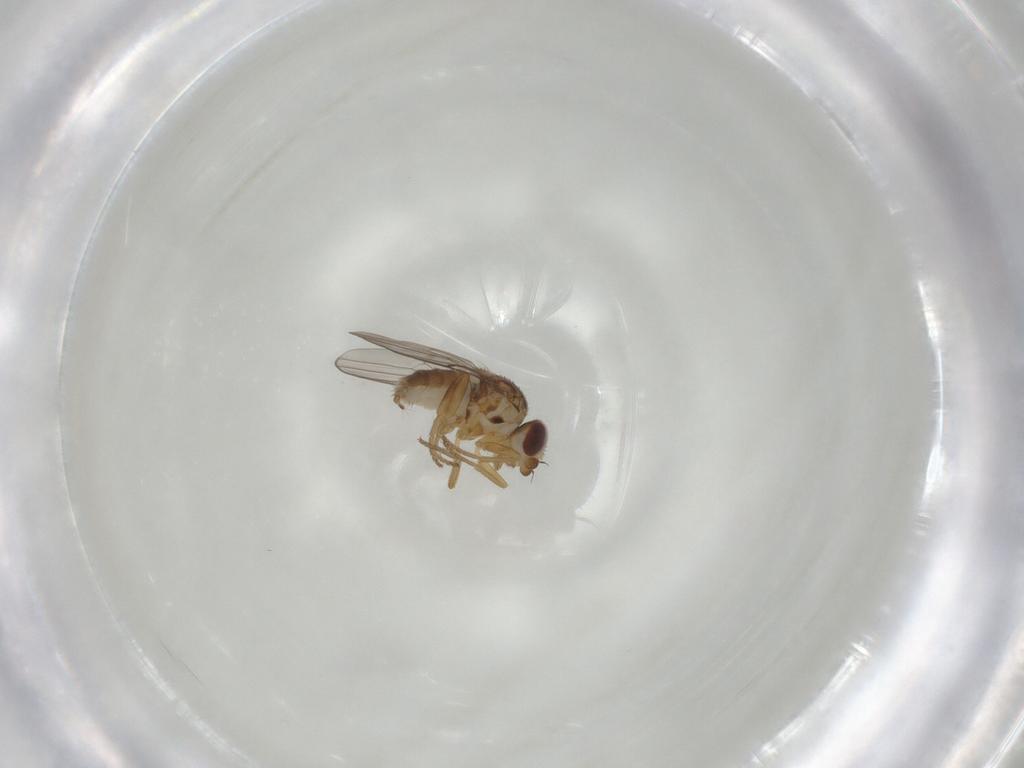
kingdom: Animalia
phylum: Arthropoda
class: Insecta
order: Diptera
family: Chloropidae
